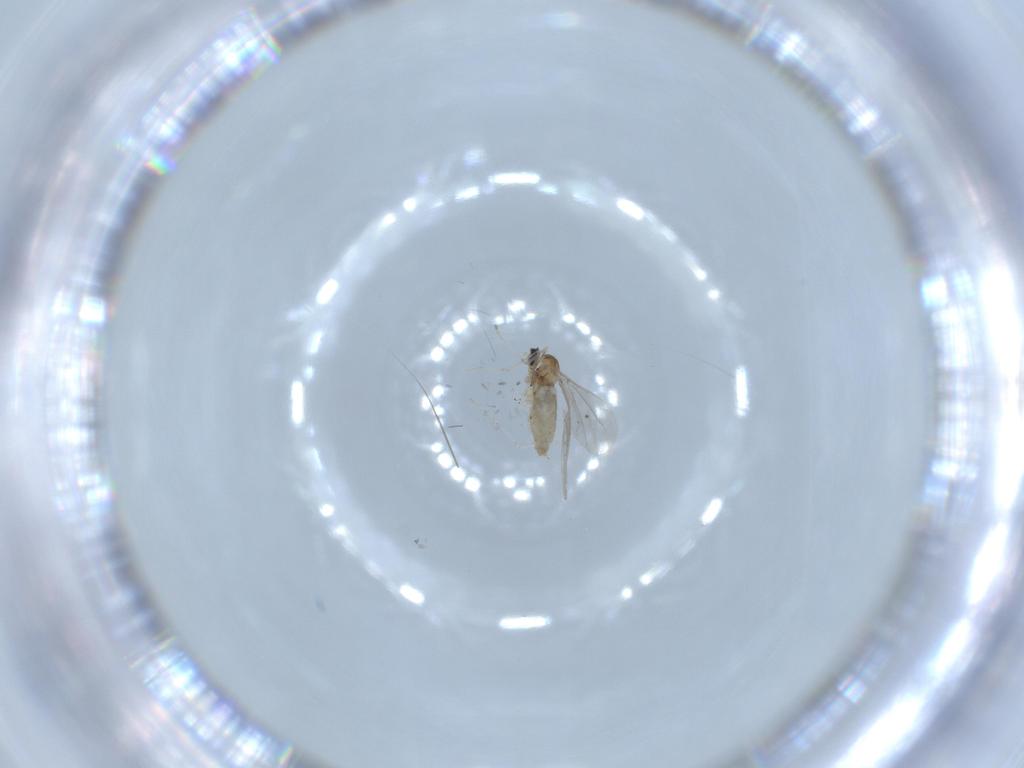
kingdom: Animalia
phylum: Arthropoda
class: Insecta
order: Diptera
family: Cecidomyiidae
